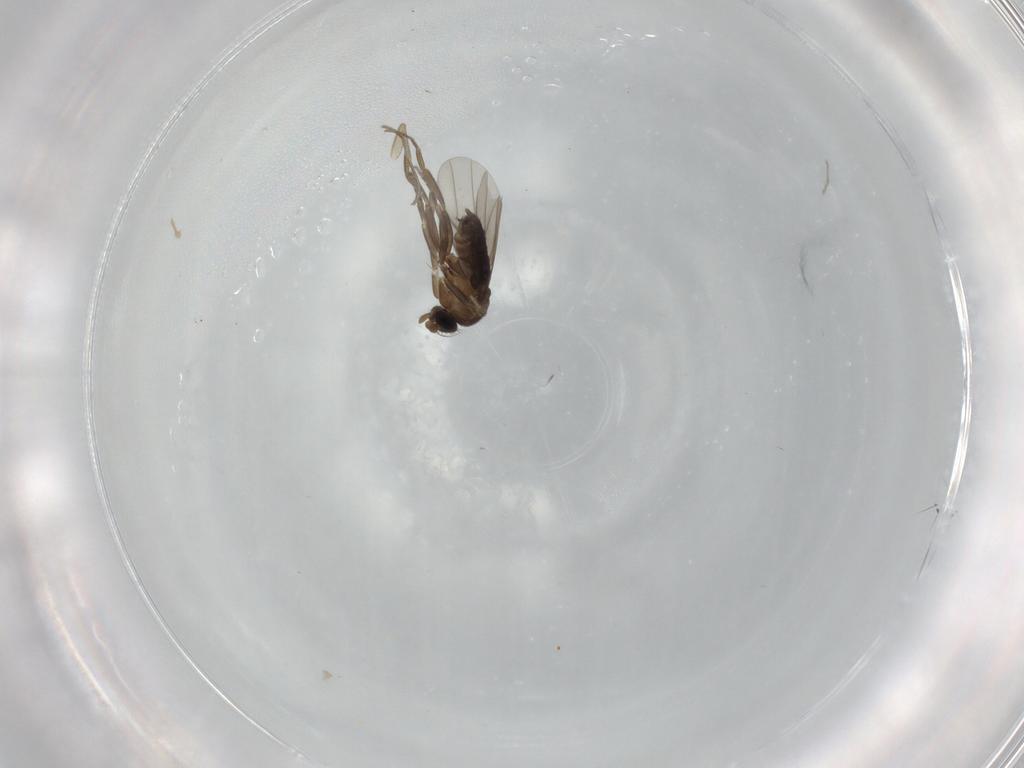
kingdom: Animalia
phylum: Arthropoda
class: Insecta
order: Diptera
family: Phoridae
